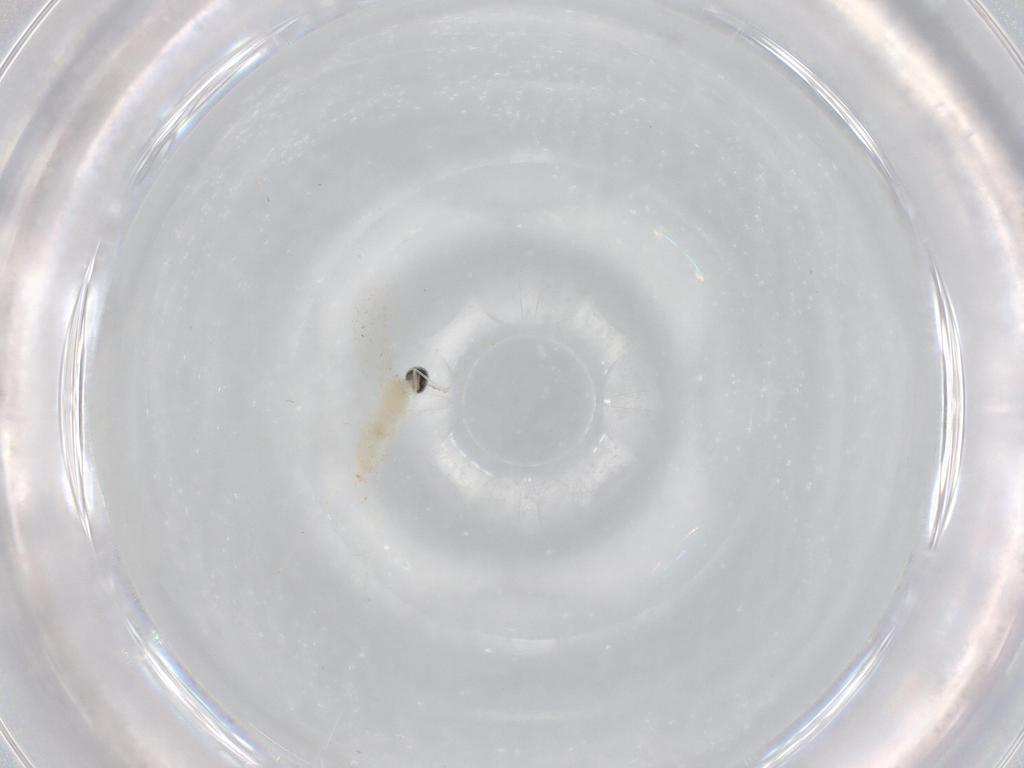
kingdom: Animalia
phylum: Arthropoda
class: Insecta
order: Diptera
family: Cecidomyiidae
